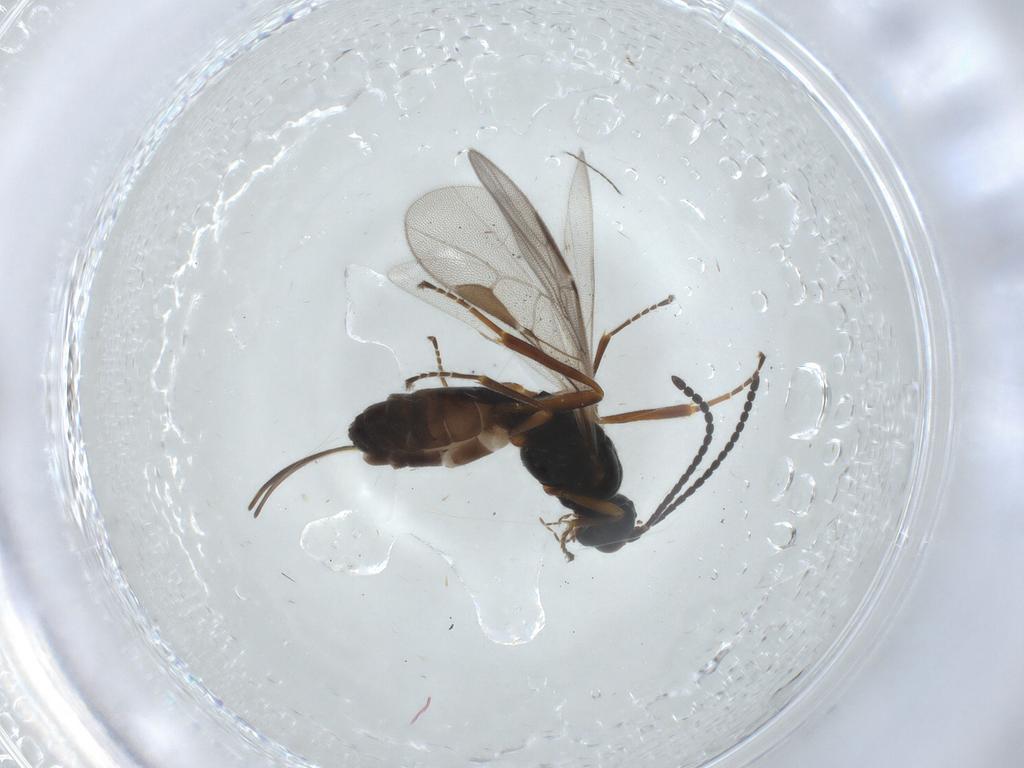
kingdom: Animalia
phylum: Arthropoda
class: Insecta
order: Hymenoptera
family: Braconidae
